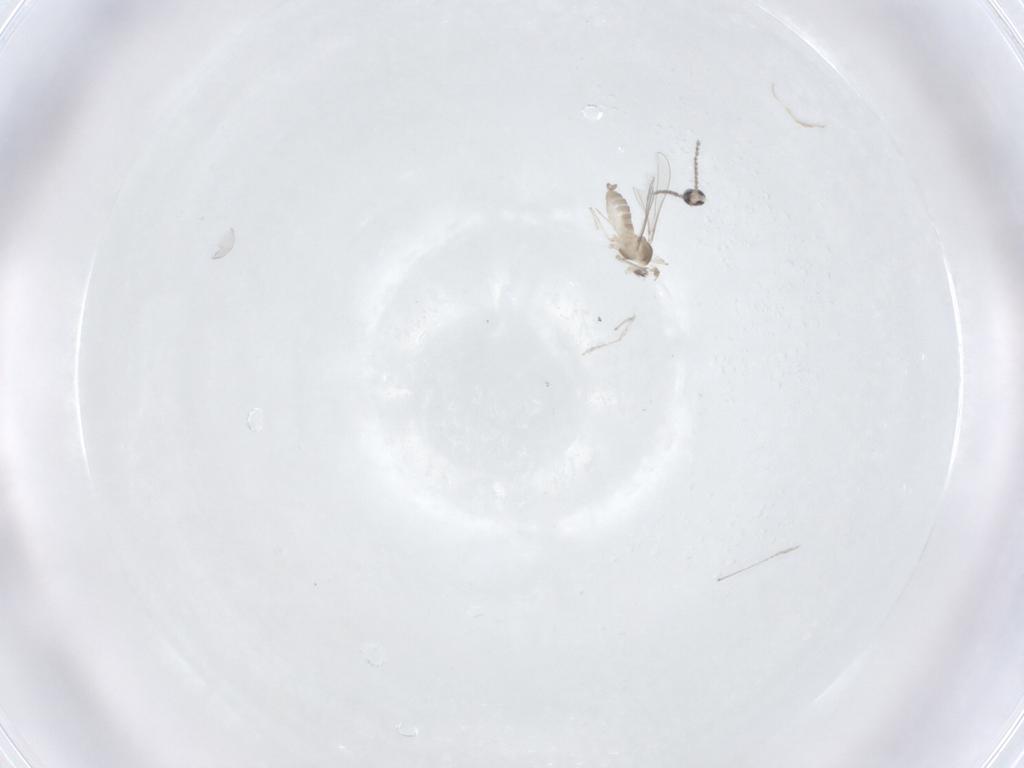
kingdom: Animalia
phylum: Arthropoda
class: Insecta
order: Diptera
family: Cecidomyiidae
